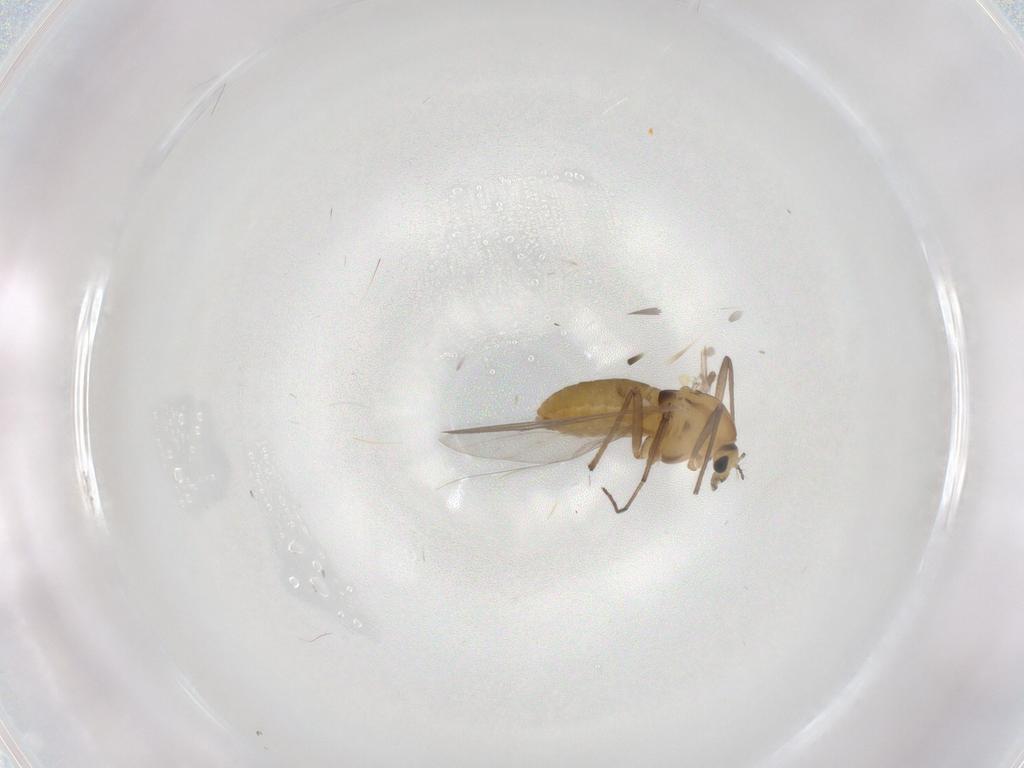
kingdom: Animalia
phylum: Arthropoda
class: Insecta
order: Diptera
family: Chironomidae
